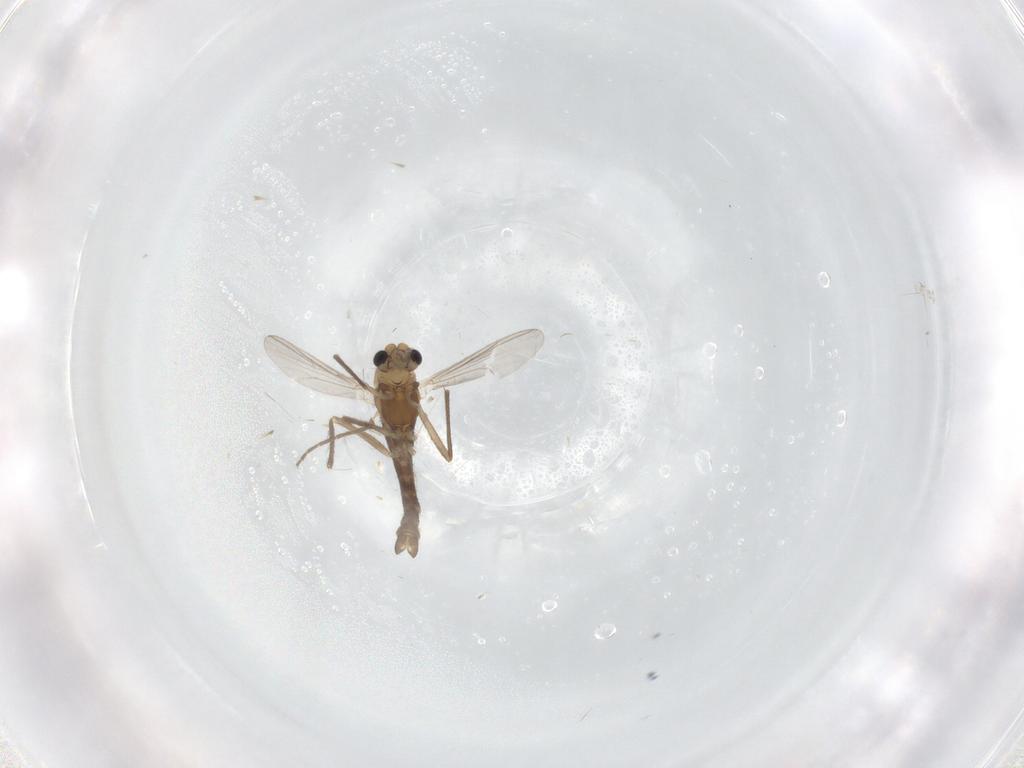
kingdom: Animalia
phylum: Arthropoda
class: Insecta
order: Diptera
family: Chironomidae
